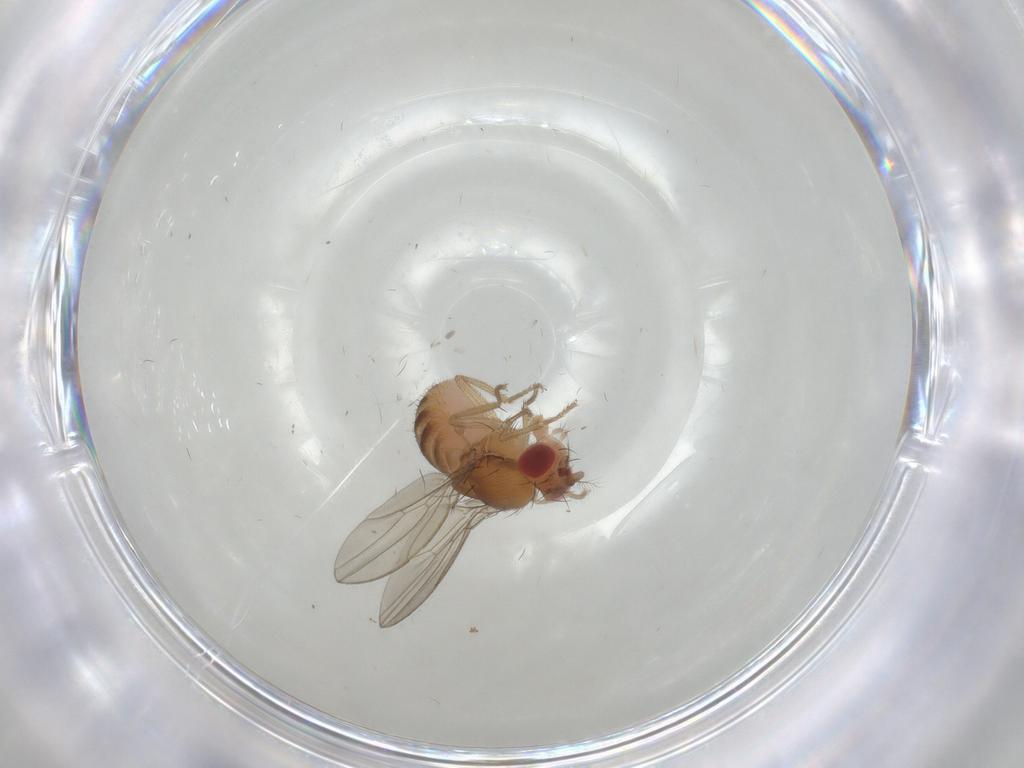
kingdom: Animalia
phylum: Arthropoda
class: Insecta
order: Diptera
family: Drosophilidae
